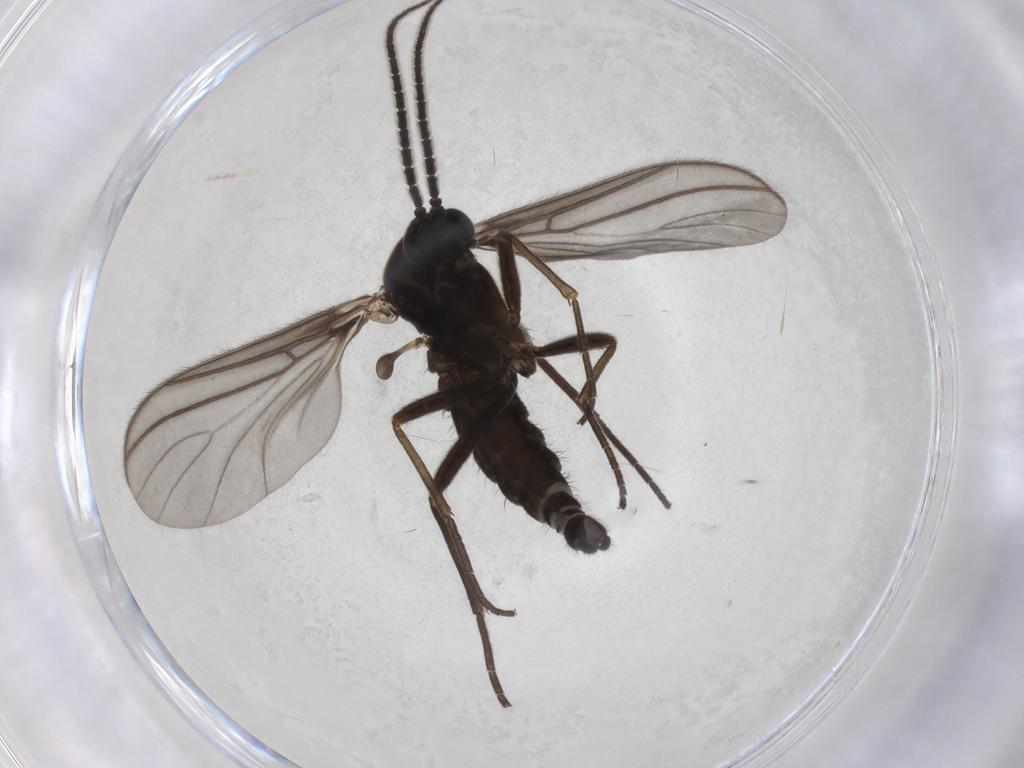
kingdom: Animalia
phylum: Arthropoda
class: Insecta
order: Diptera
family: Sciaridae
